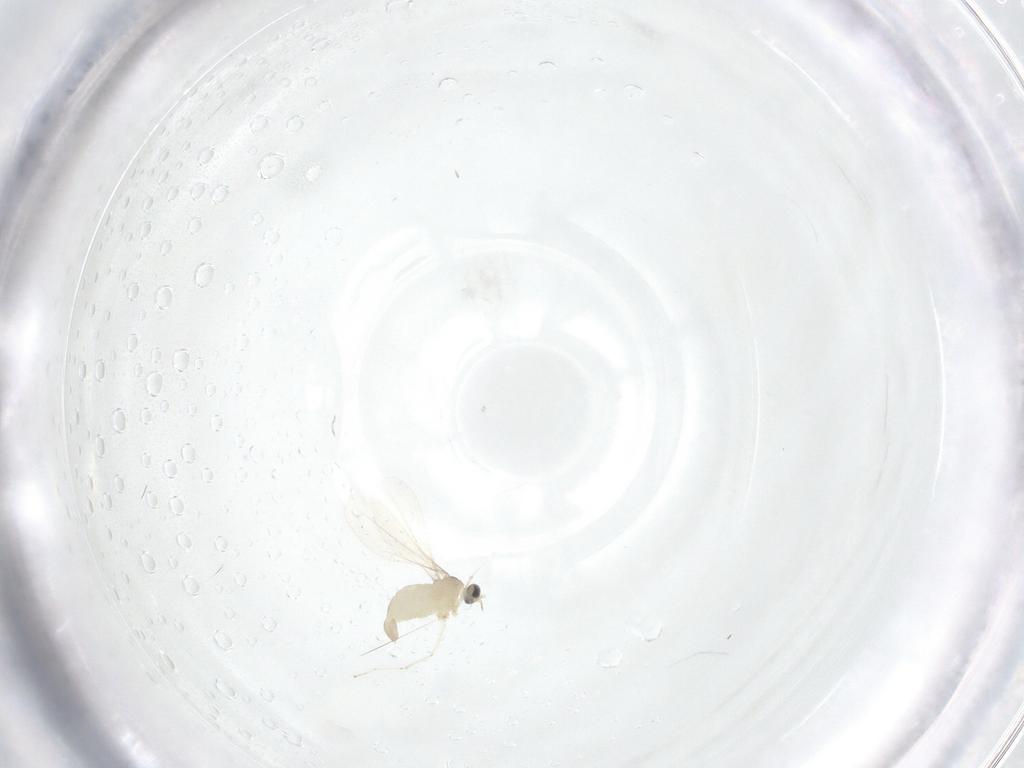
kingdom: Animalia
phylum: Arthropoda
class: Insecta
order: Diptera
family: Cecidomyiidae
